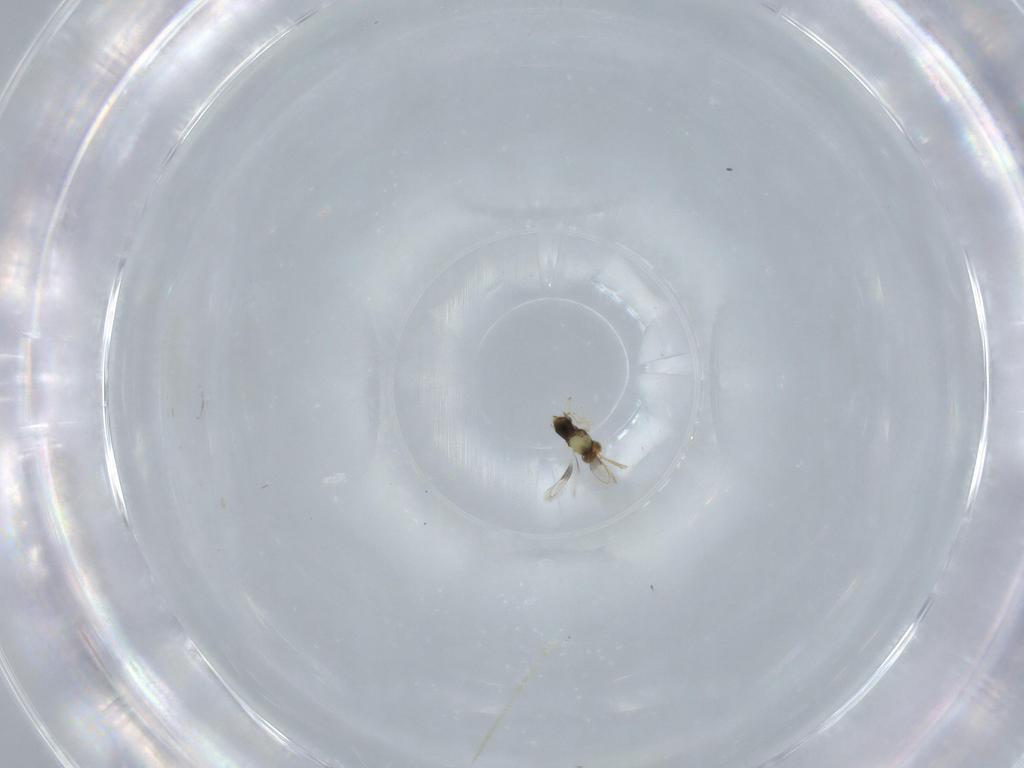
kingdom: Animalia
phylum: Arthropoda
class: Insecta
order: Hymenoptera
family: Aphelinidae
